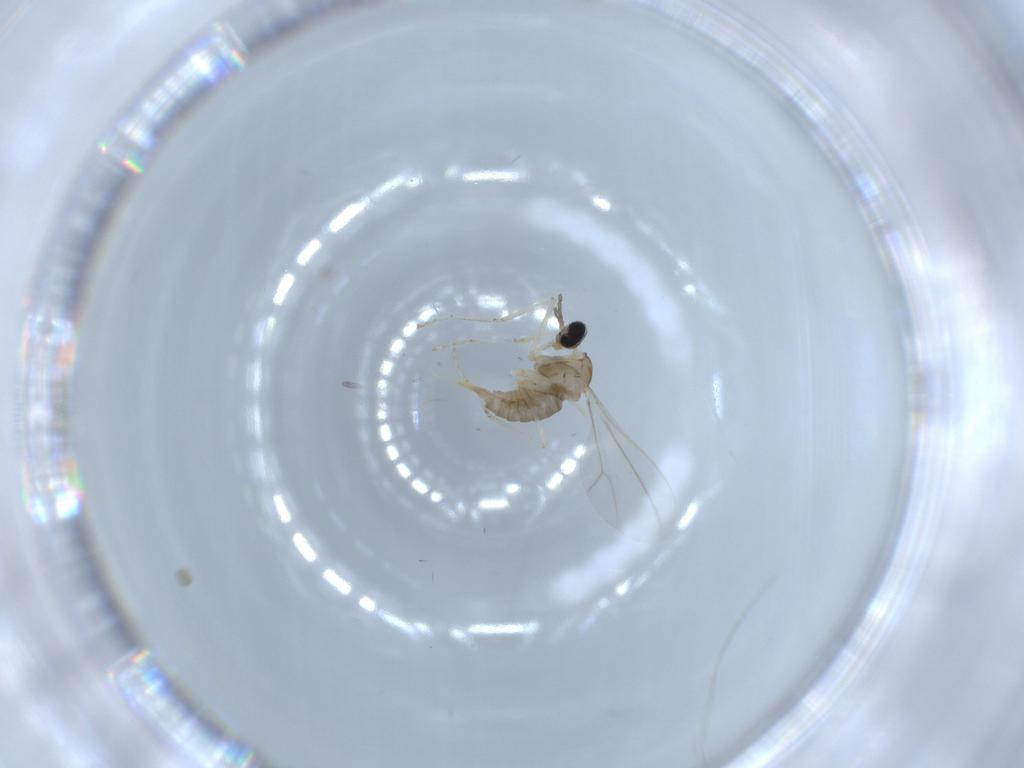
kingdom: Animalia
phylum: Arthropoda
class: Insecta
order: Diptera
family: Cecidomyiidae
